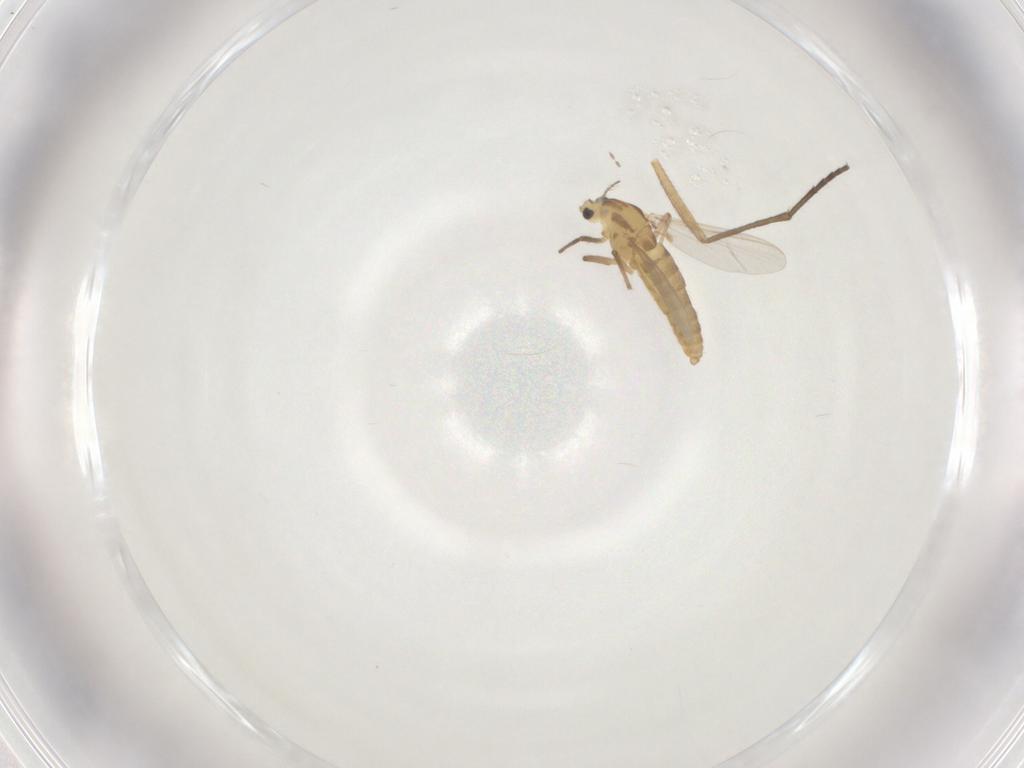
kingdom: Animalia
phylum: Arthropoda
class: Insecta
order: Diptera
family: Sciaridae
